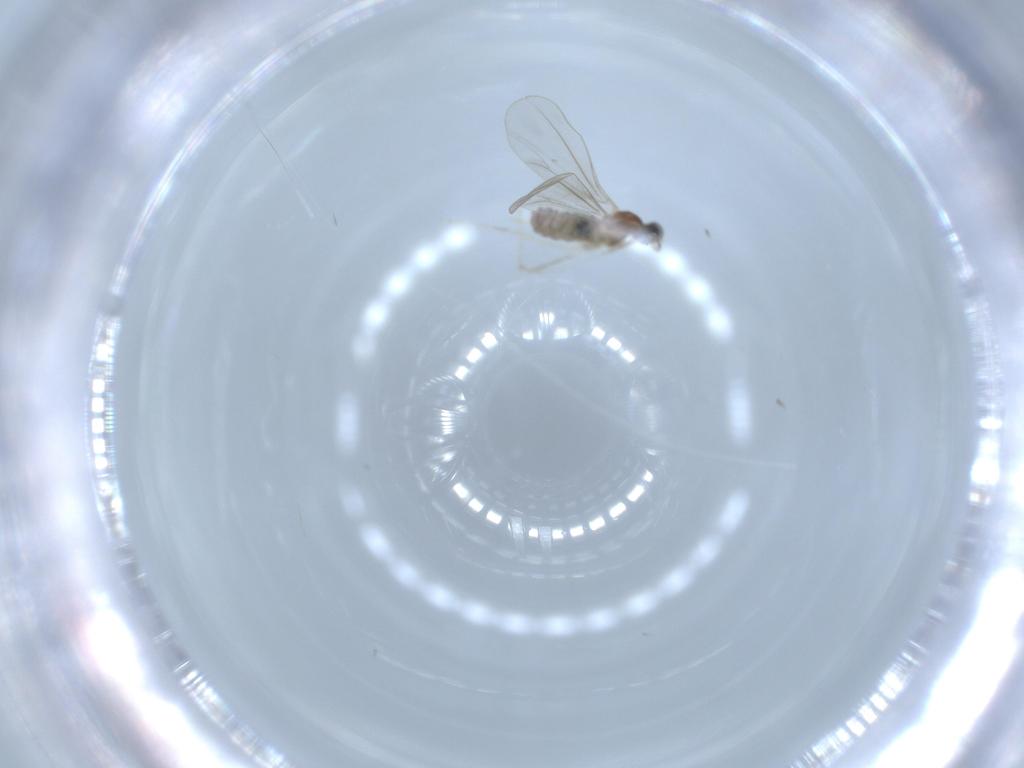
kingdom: Animalia
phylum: Arthropoda
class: Insecta
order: Diptera
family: Cecidomyiidae
